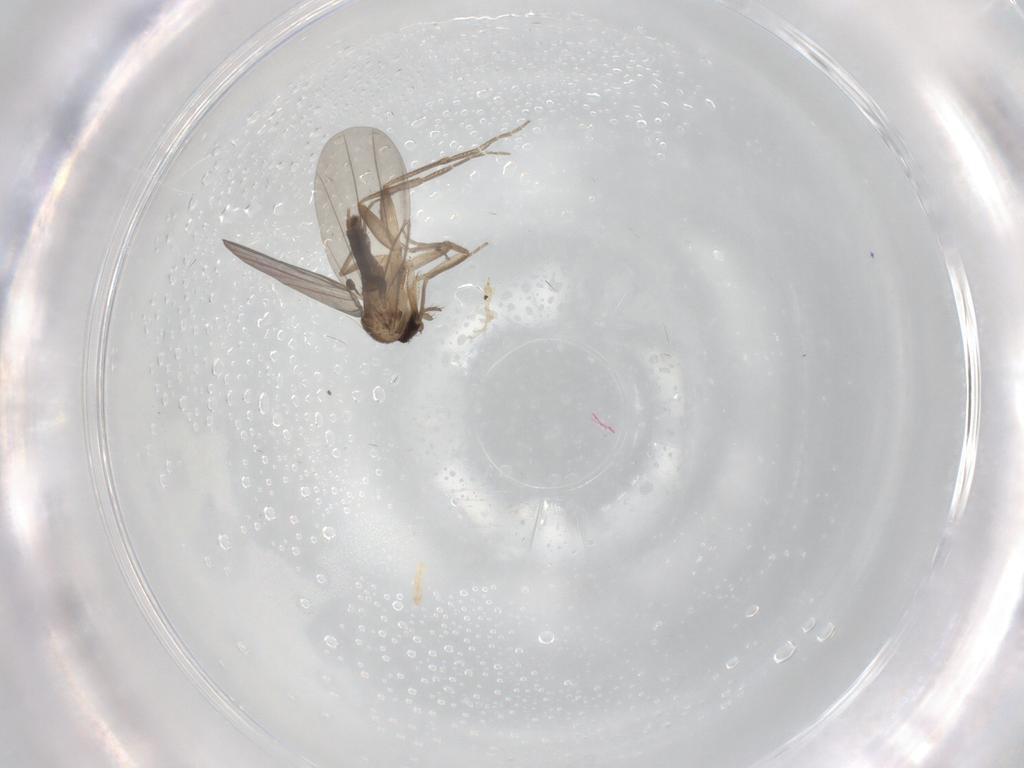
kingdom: Animalia
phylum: Arthropoda
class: Insecta
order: Diptera
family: Phoridae
